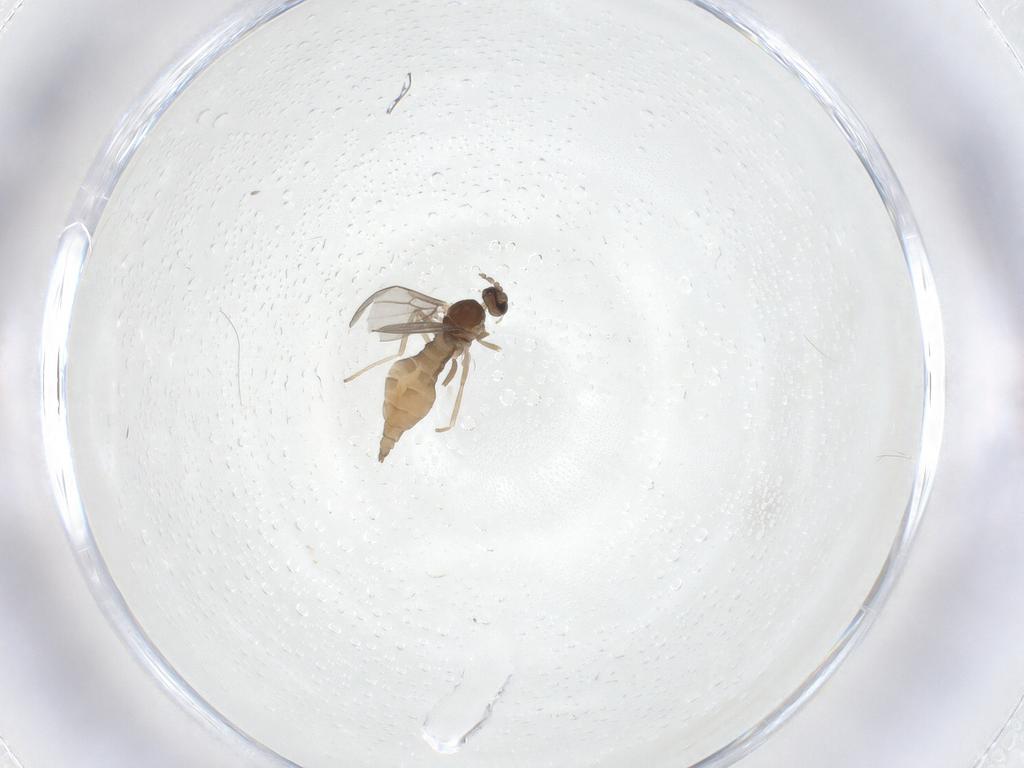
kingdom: Animalia
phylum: Arthropoda
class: Insecta
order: Diptera
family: Cecidomyiidae
